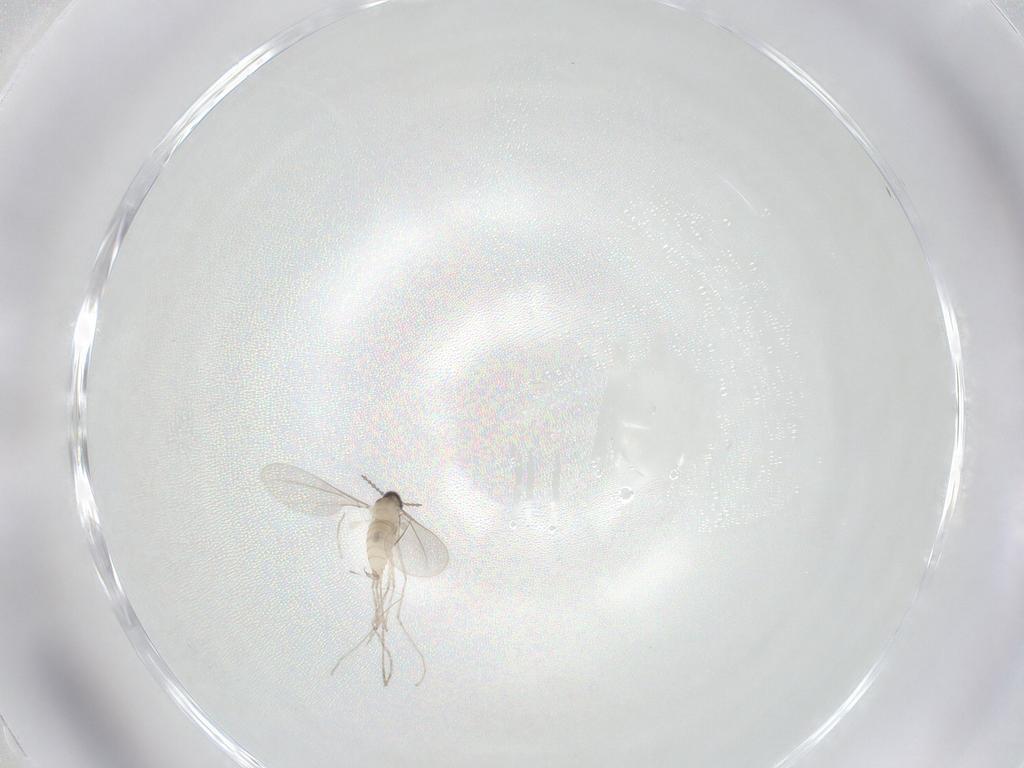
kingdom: Animalia
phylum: Arthropoda
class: Insecta
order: Diptera
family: Cecidomyiidae
